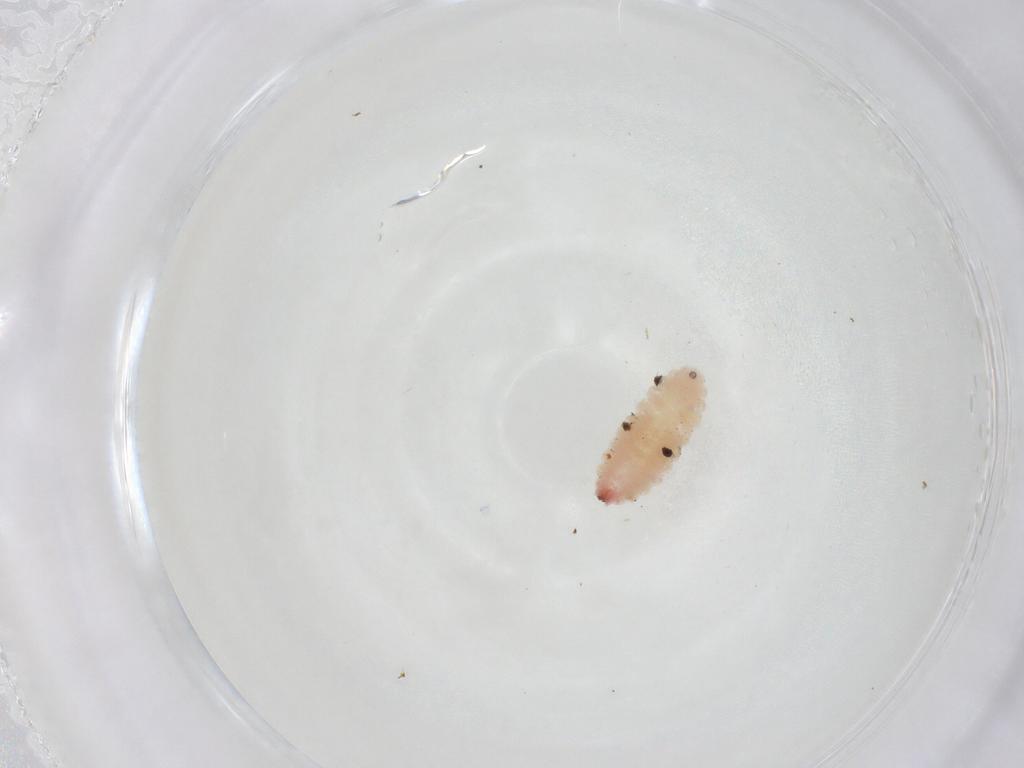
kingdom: Animalia
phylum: Arthropoda
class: Insecta
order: Diptera
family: Cecidomyiidae
